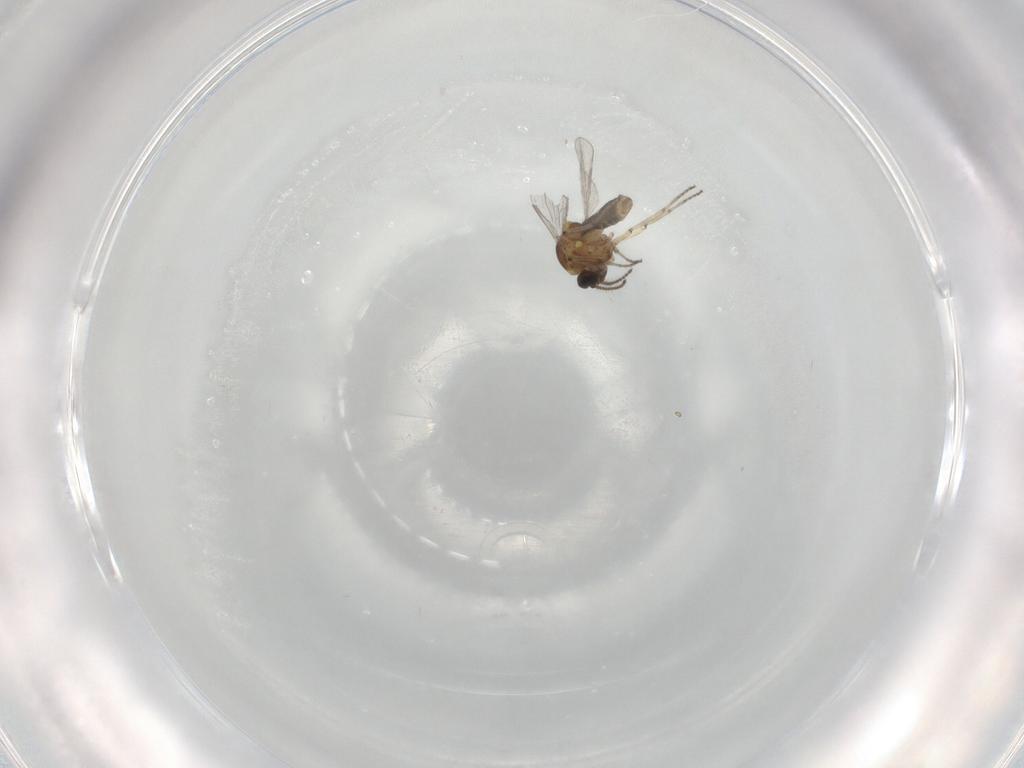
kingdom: Animalia
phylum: Arthropoda
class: Insecta
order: Diptera
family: Ceratopogonidae
